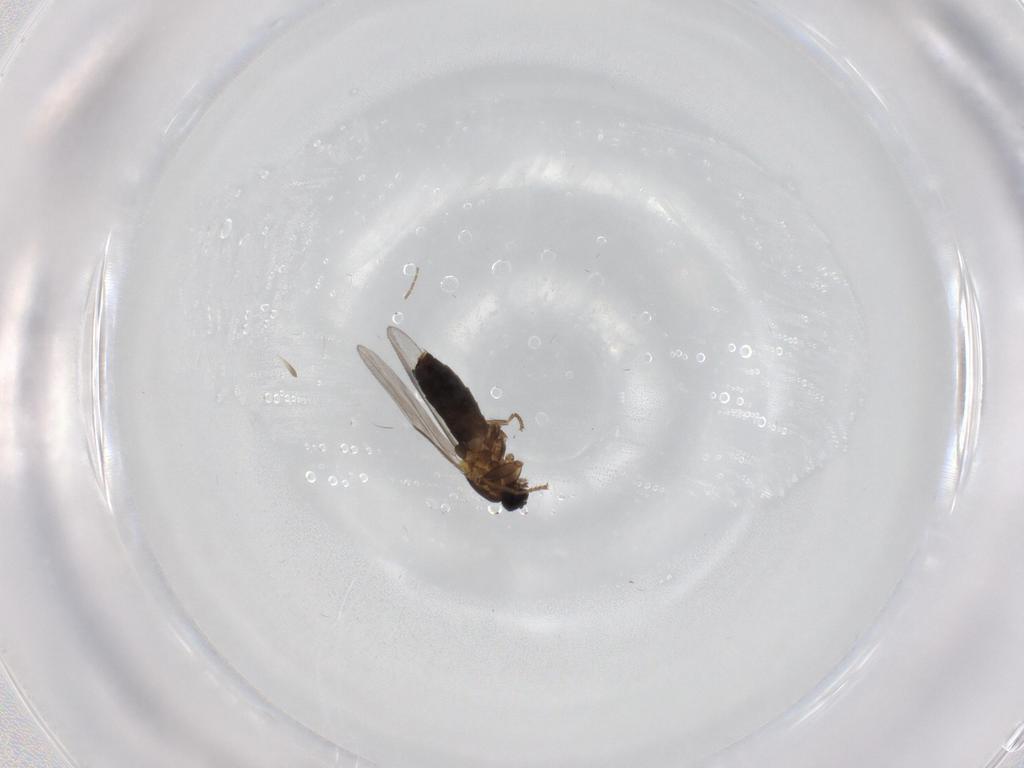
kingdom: Animalia
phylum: Arthropoda
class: Insecta
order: Diptera
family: Scatopsidae
